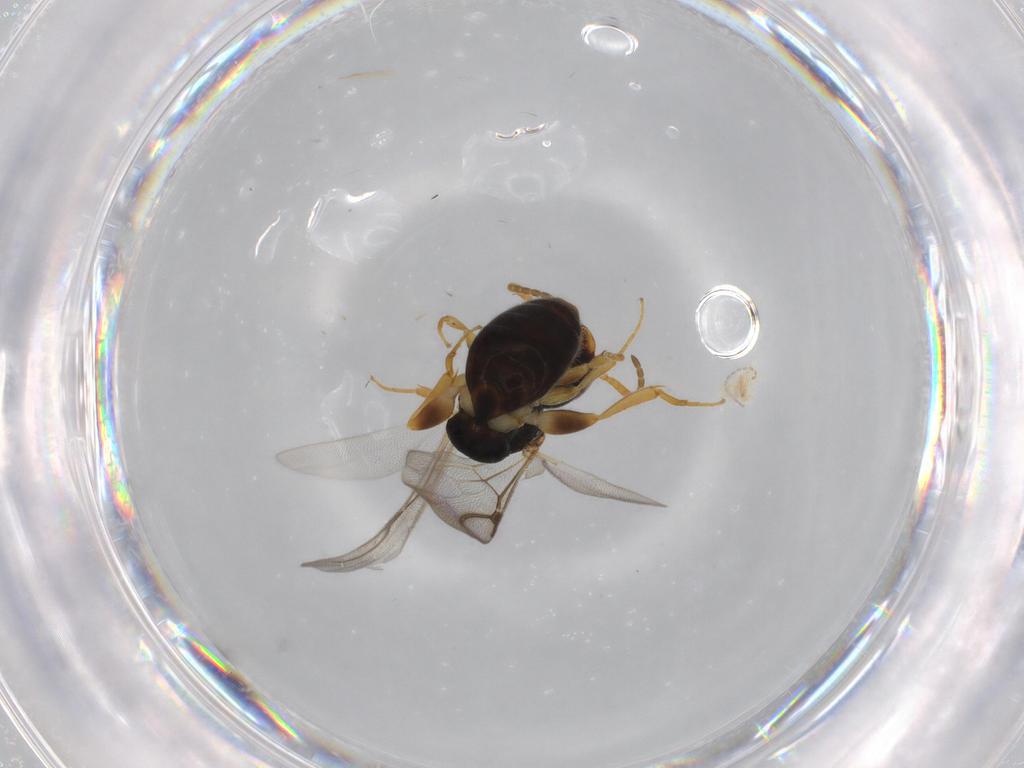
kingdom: Animalia
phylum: Arthropoda
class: Insecta
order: Hymenoptera
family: Bethylidae
